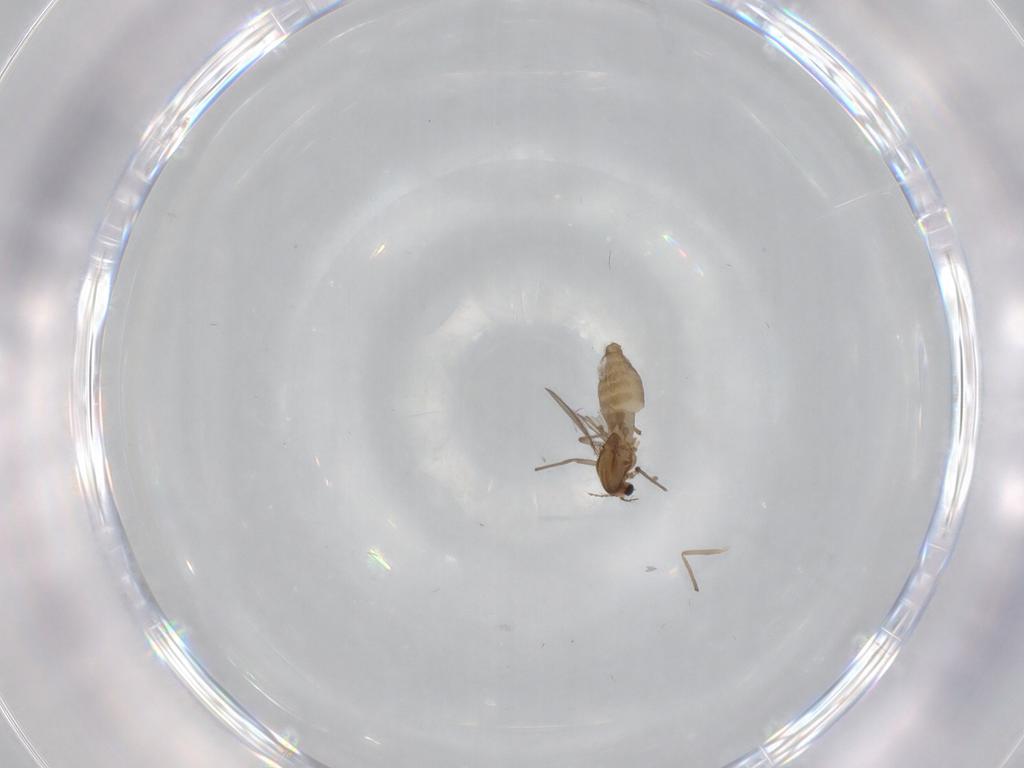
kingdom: Animalia
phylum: Arthropoda
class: Insecta
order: Diptera
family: Chironomidae
